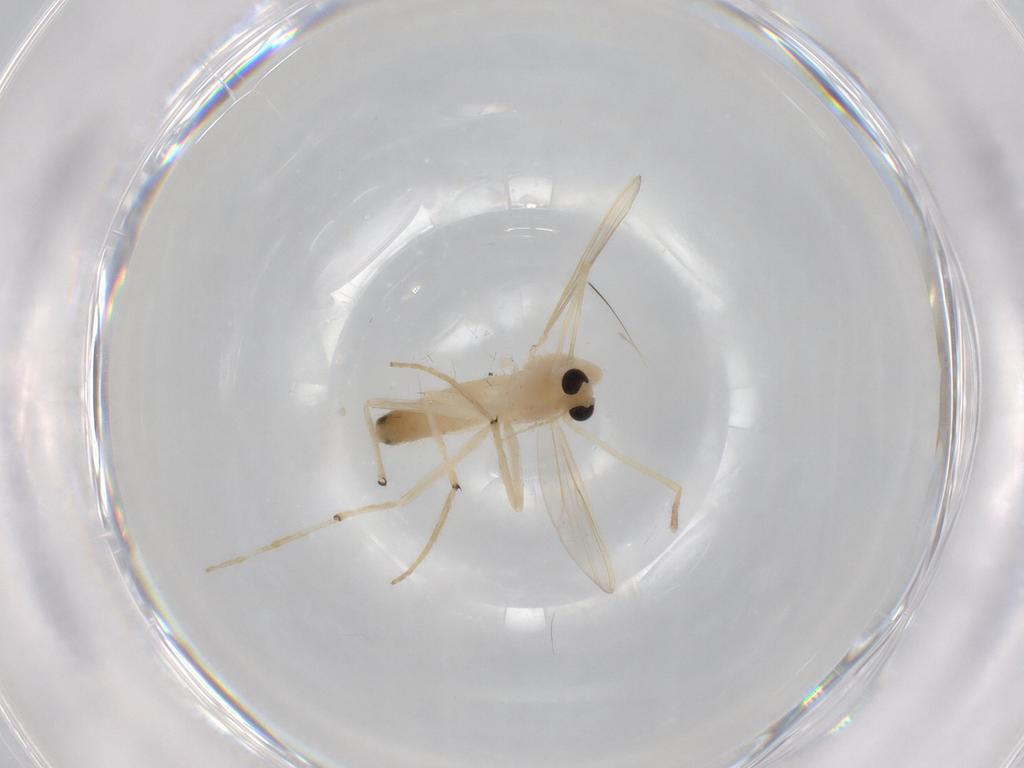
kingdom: Animalia
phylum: Arthropoda
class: Insecta
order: Diptera
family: Chironomidae
